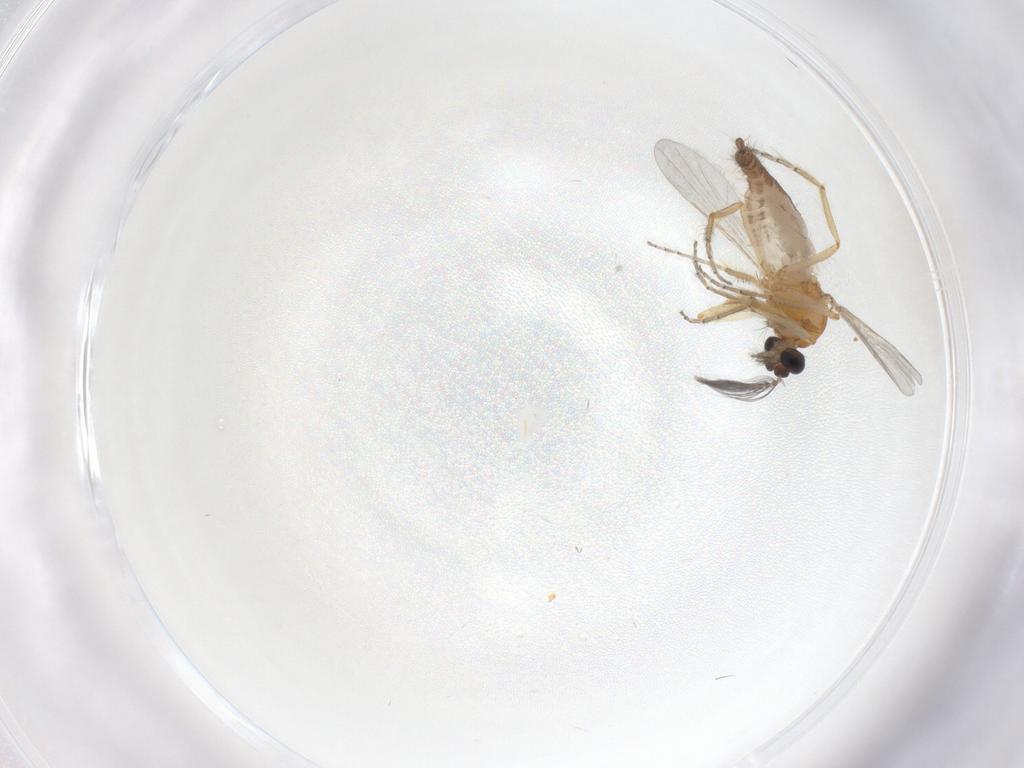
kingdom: Animalia
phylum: Arthropoda
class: Insecta
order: Diptera
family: Ceratopogonidae
